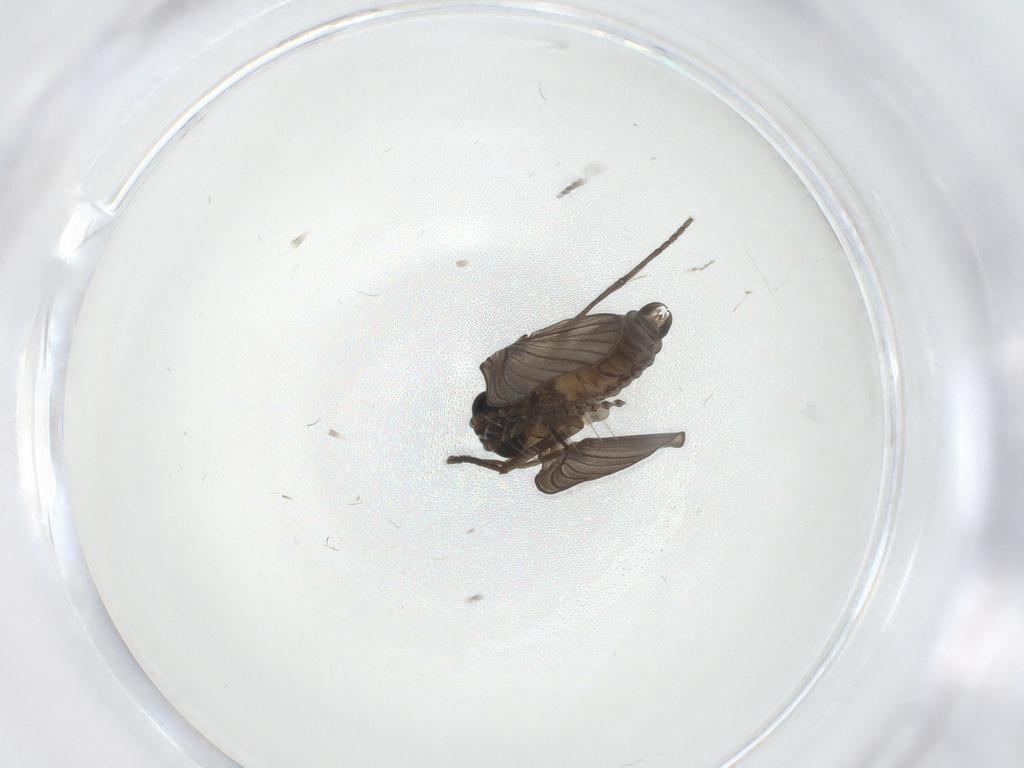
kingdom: Animalia
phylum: Arthropoda
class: Insecta
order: Diptera
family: Psychodidae
